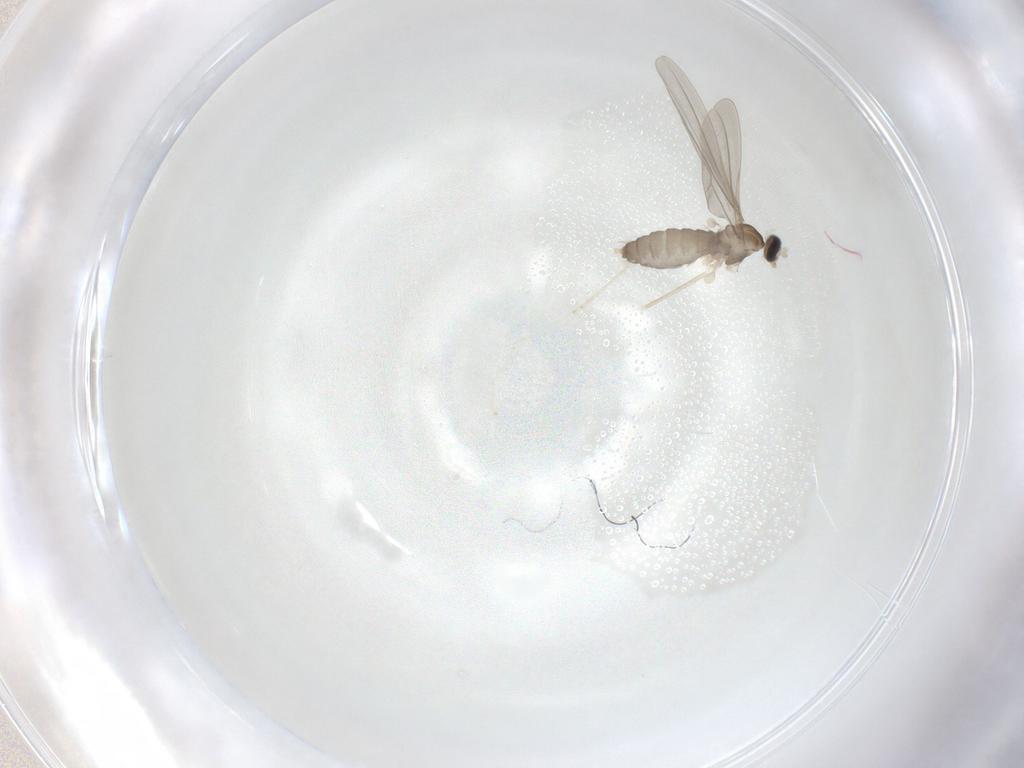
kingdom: Animalia
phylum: Arthropoda
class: Insecta
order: Diptera
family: Cecidomyiidae
